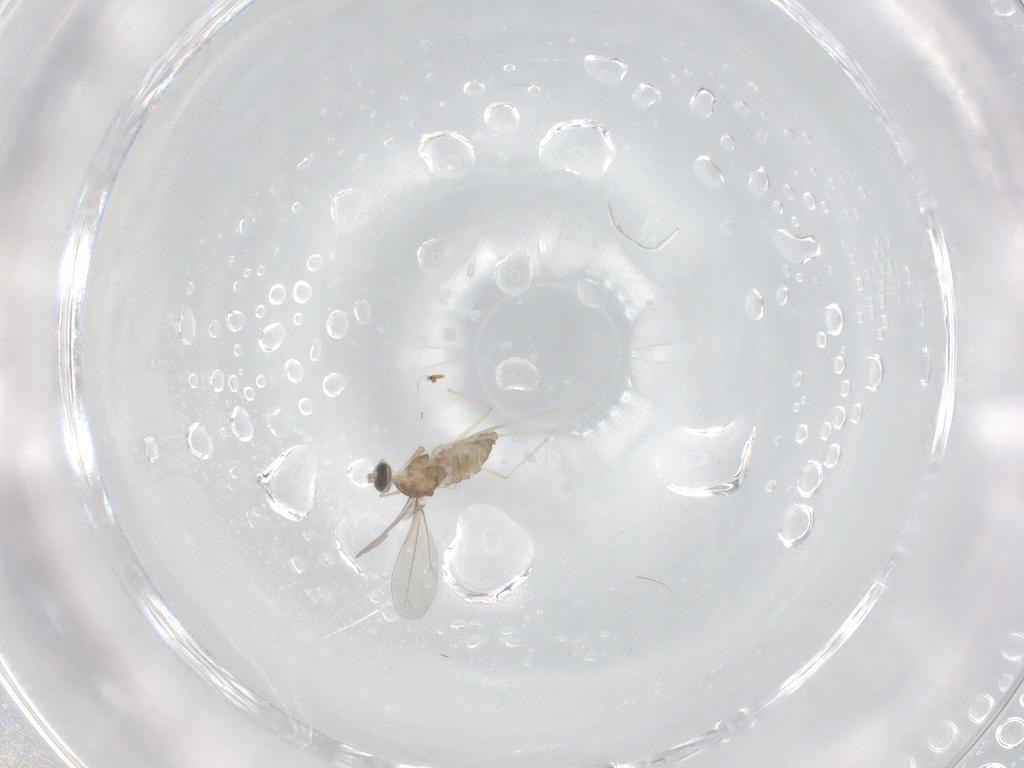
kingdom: Animalia
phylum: Arthropoda
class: Insecta
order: Diptera
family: Cecidomyiidae
